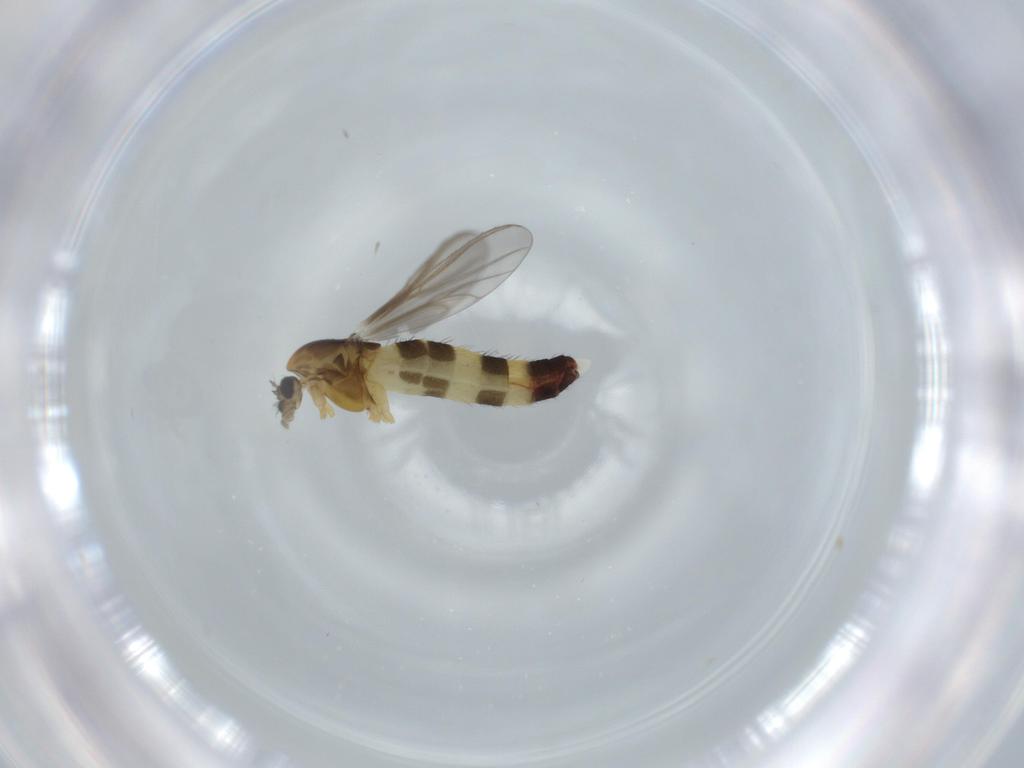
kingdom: Animalia
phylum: Arthropoda
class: Insecta
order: Diptera
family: Chironomidae
